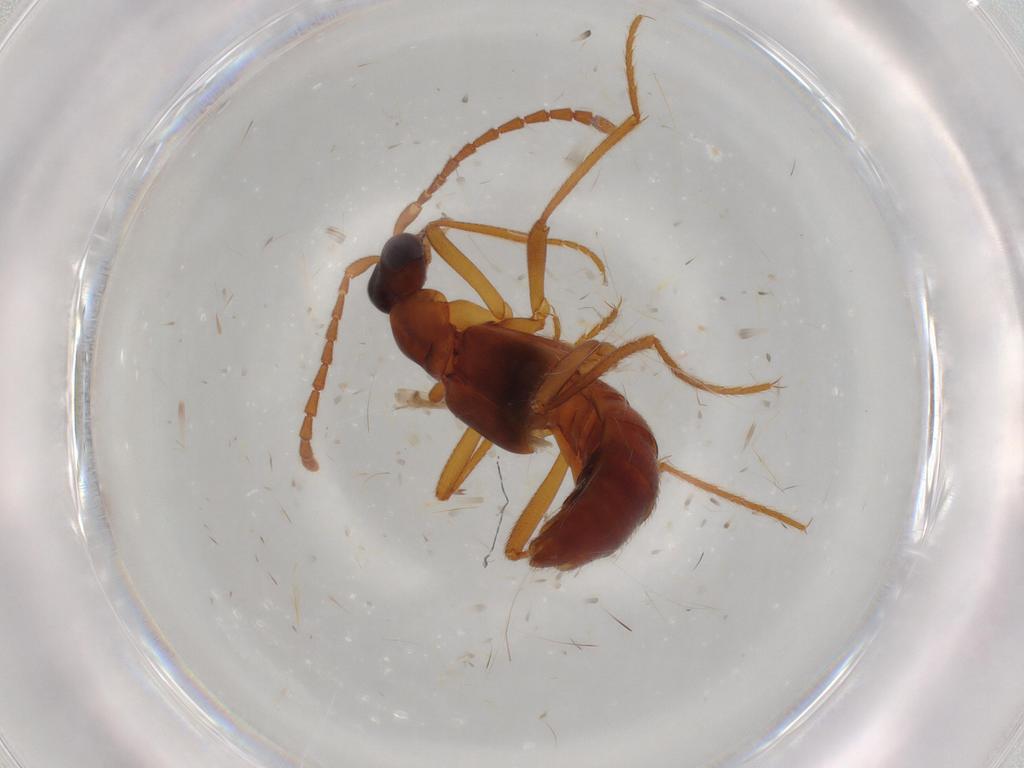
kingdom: Animalia
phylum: Arthropoda
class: Insecta
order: Coleoptera
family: Staphylinidae
